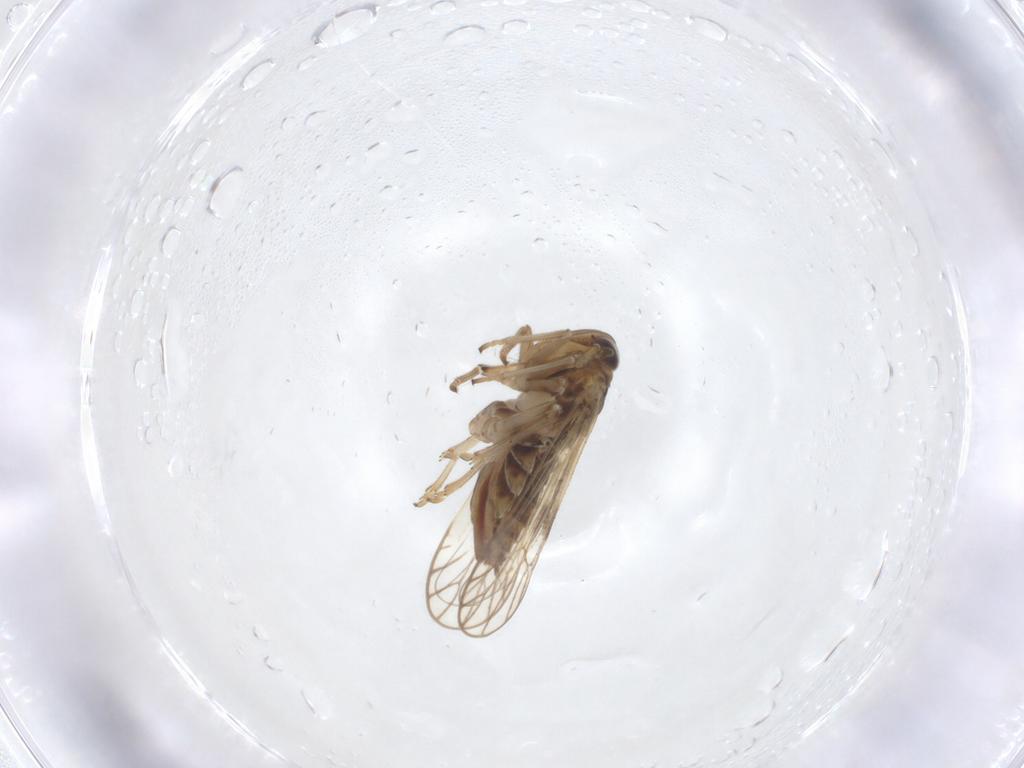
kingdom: Animalia
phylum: Arthropoda
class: Insecta
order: Hemiptera
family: Delphacidae
